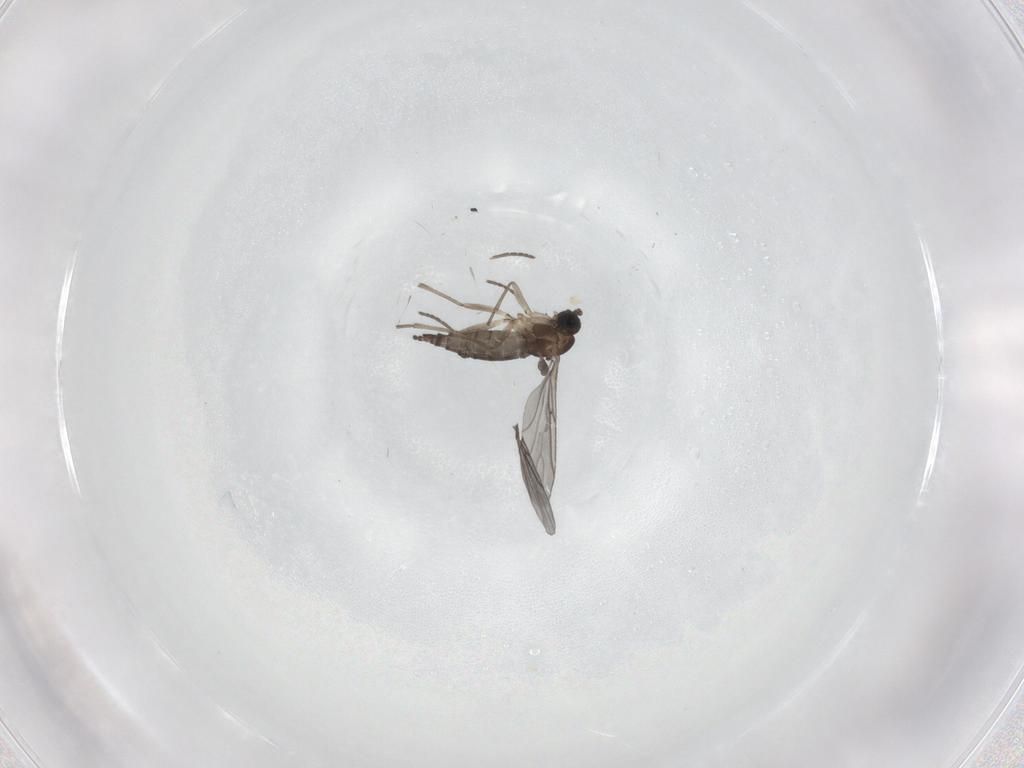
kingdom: Animalia
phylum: Arthropoda
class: Insecta
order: Diptera
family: Sciaridae
